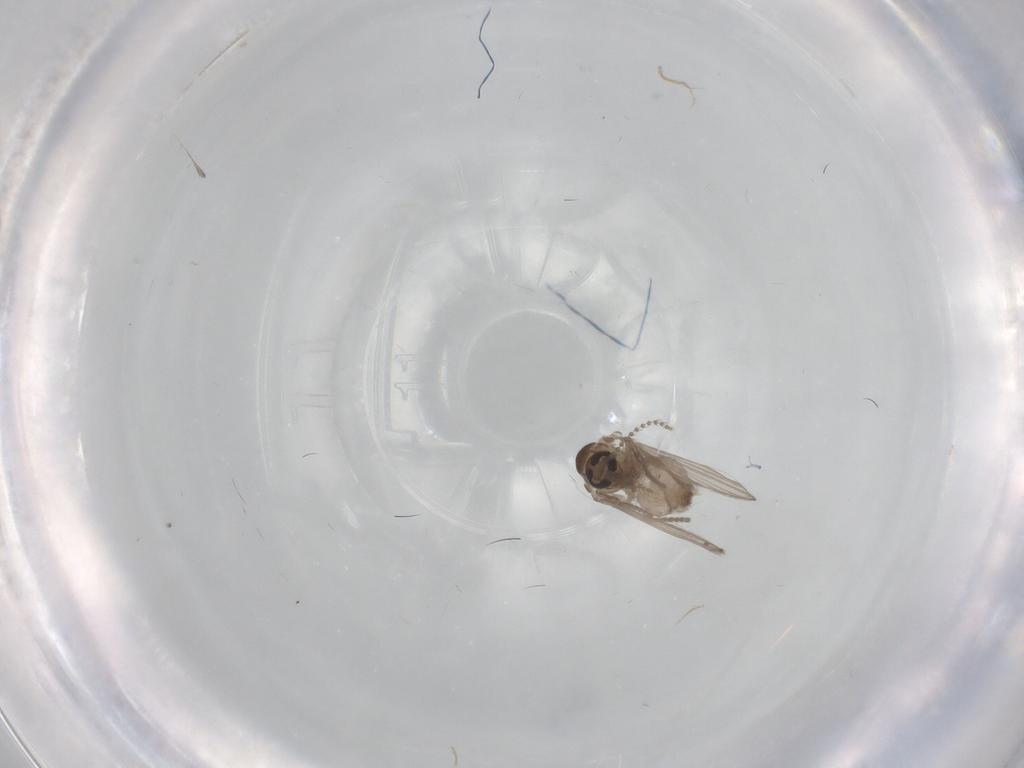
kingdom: Animalia
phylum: Arthropoda
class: Insecta
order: Diptera
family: Psychodidae
